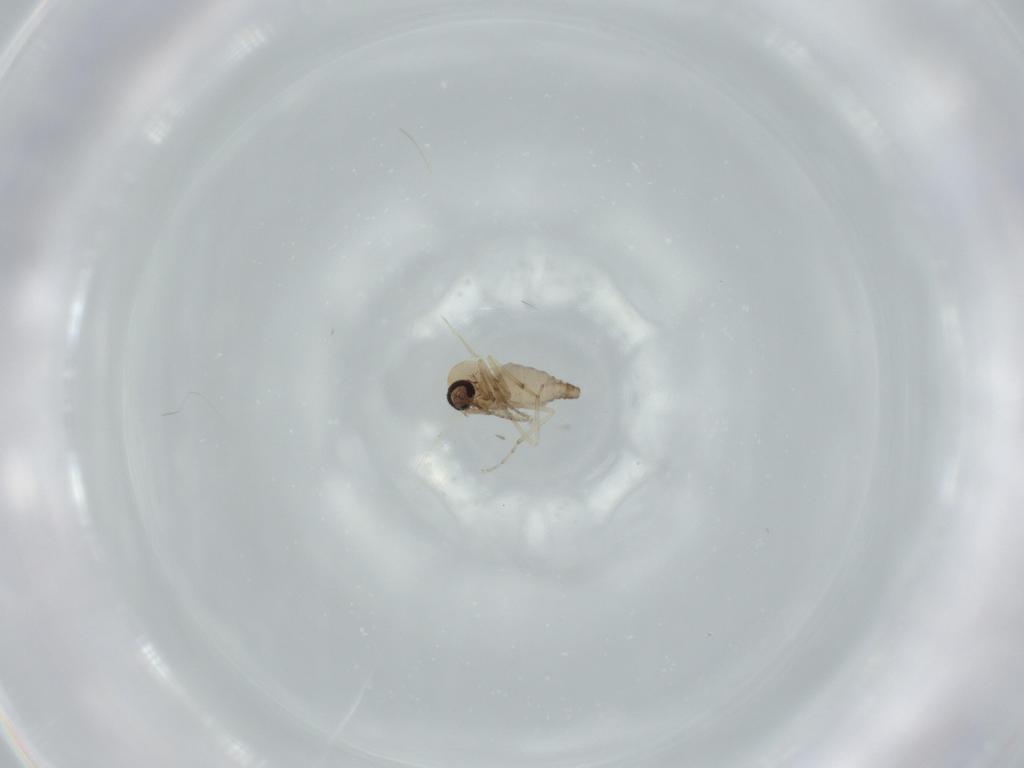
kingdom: Animalia
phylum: Arthropoda
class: Insecta
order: Diptera
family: Ceratopogonidae
